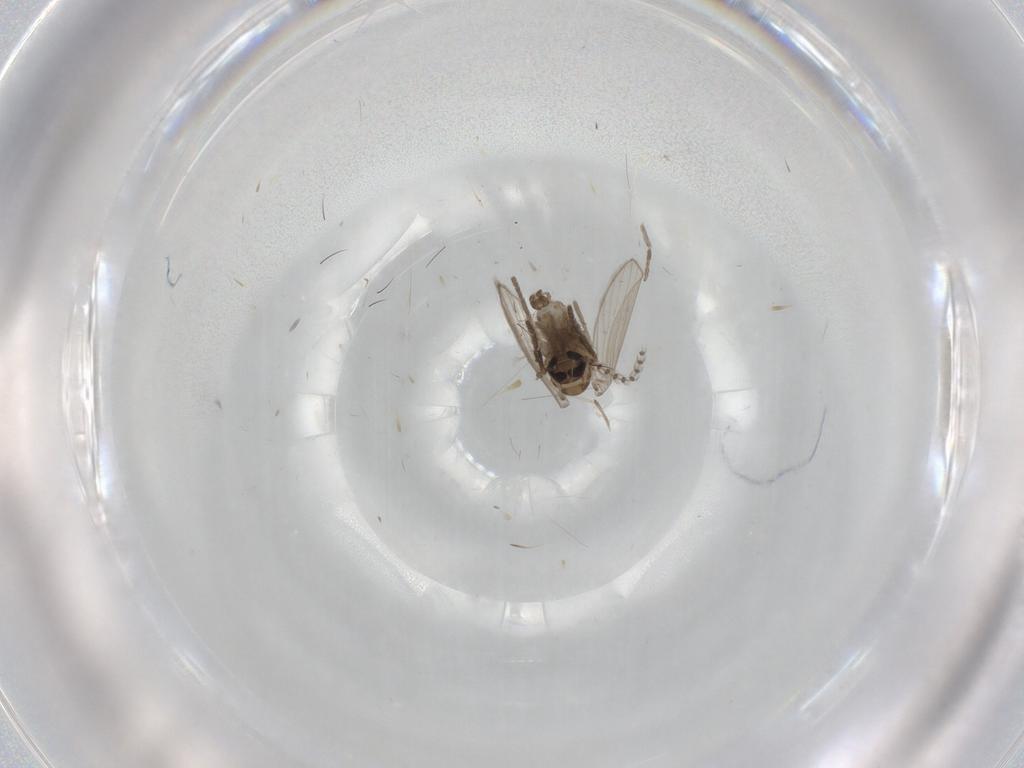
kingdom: Animalia
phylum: Arthropoda
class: Insecta
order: Diptera
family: Psychodidae
